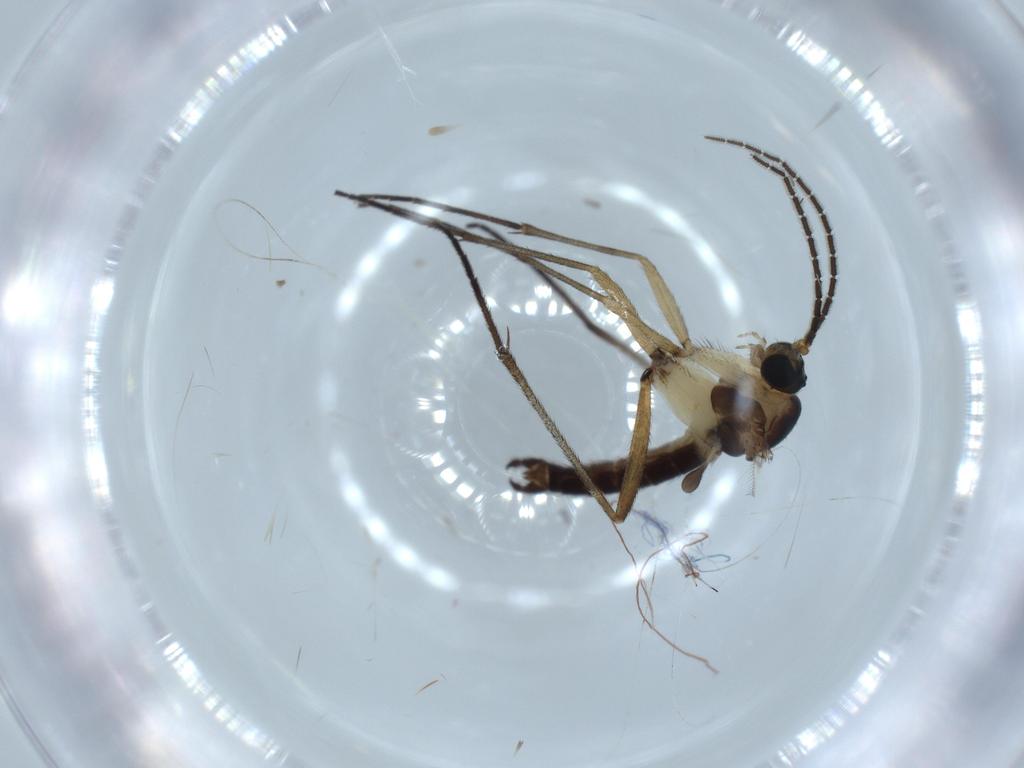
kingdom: Animalia
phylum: Arthropoda
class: Insecta
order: Diptera
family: Sciaridae
